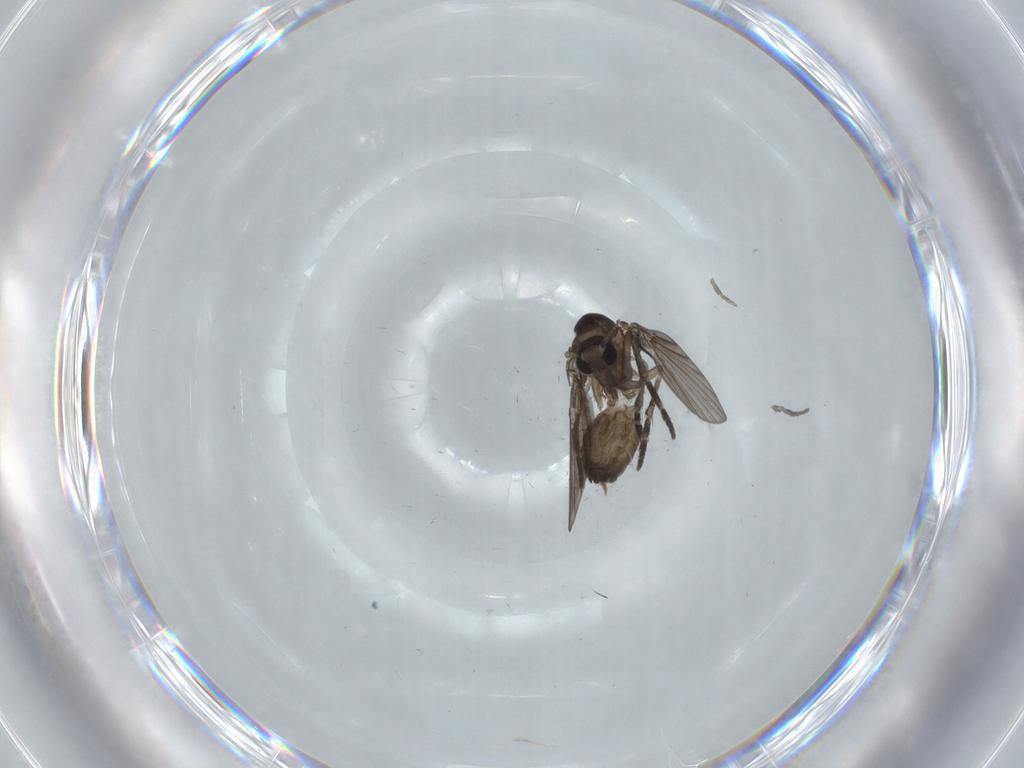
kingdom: Animalia
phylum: Arthropoda
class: Insecta
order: Diptera
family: Psychodidae
